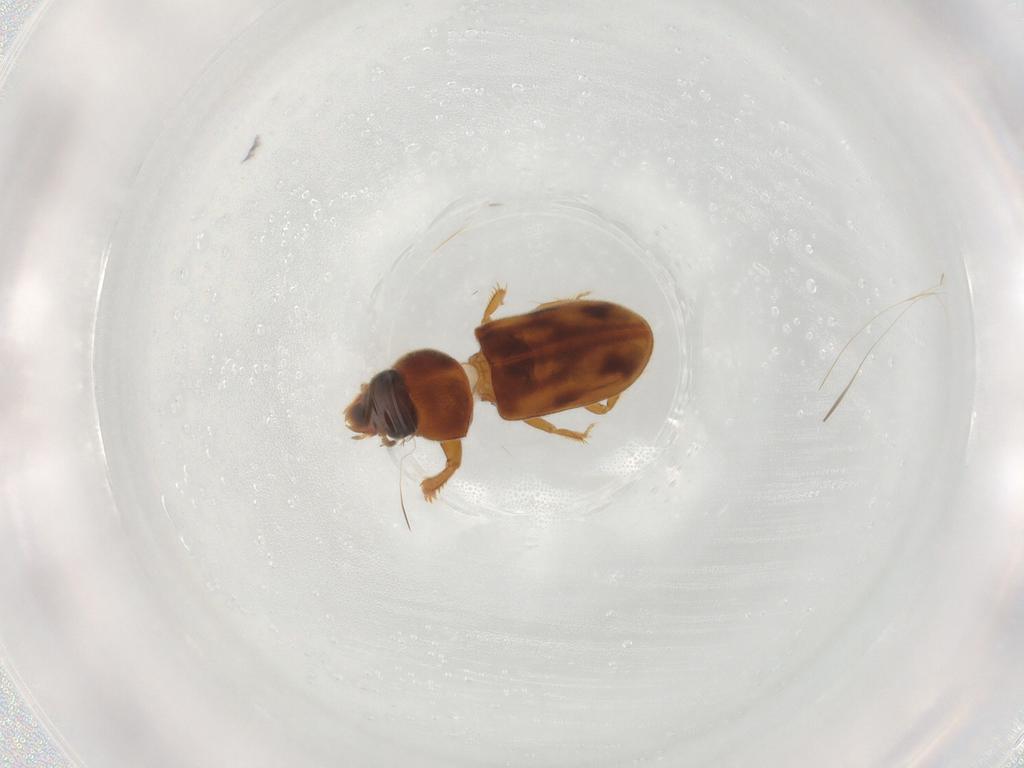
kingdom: Animalia
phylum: Arthropoda
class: Insecta
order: Coleoptera
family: Heteroceridae
